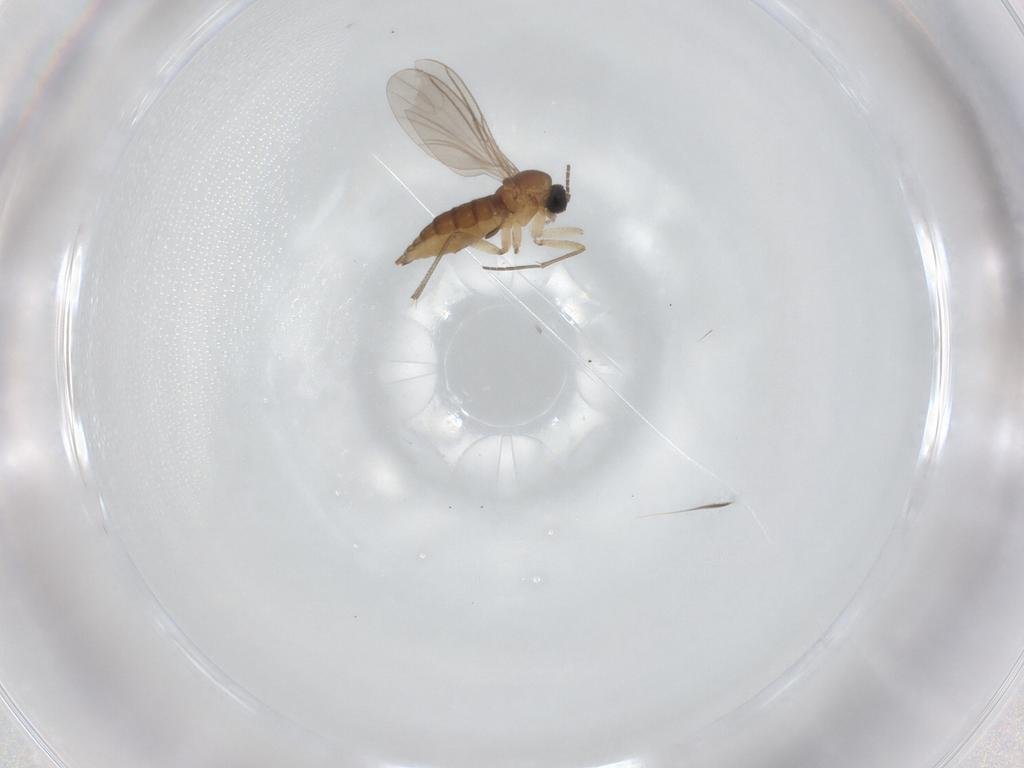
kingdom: Animalia
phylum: Arthropoda
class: Insecta
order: Diptera
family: Sciaridae
